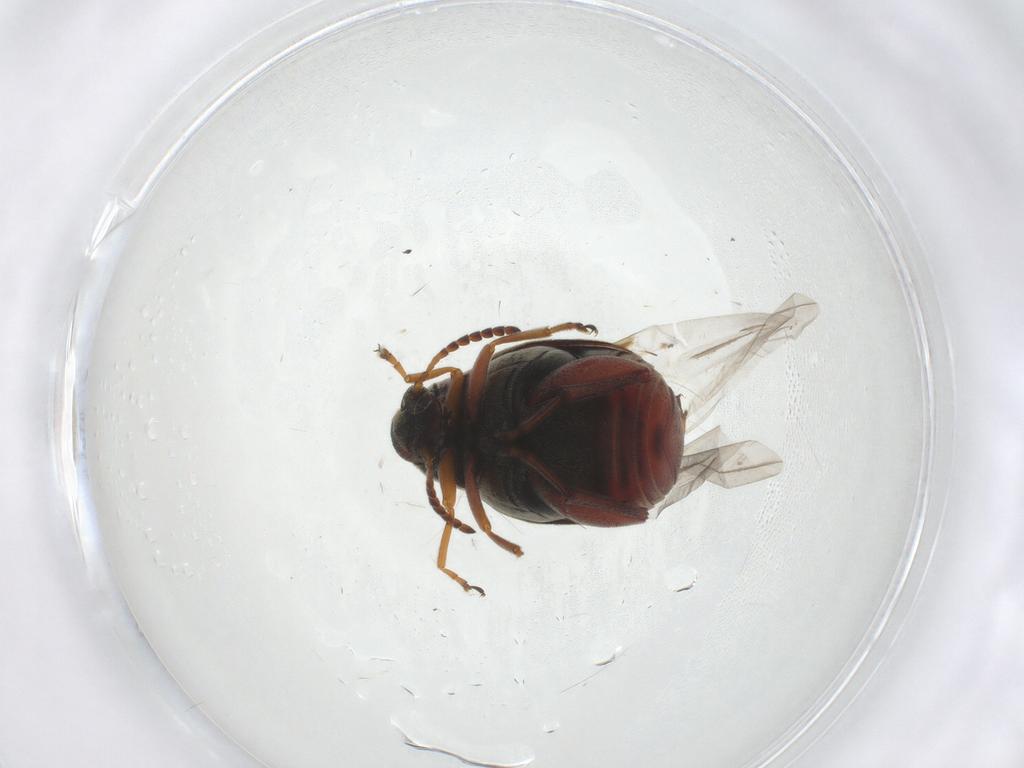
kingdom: Animalia
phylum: Arthropoda
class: Insecta
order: Coleoptera
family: Chrysomelidae
